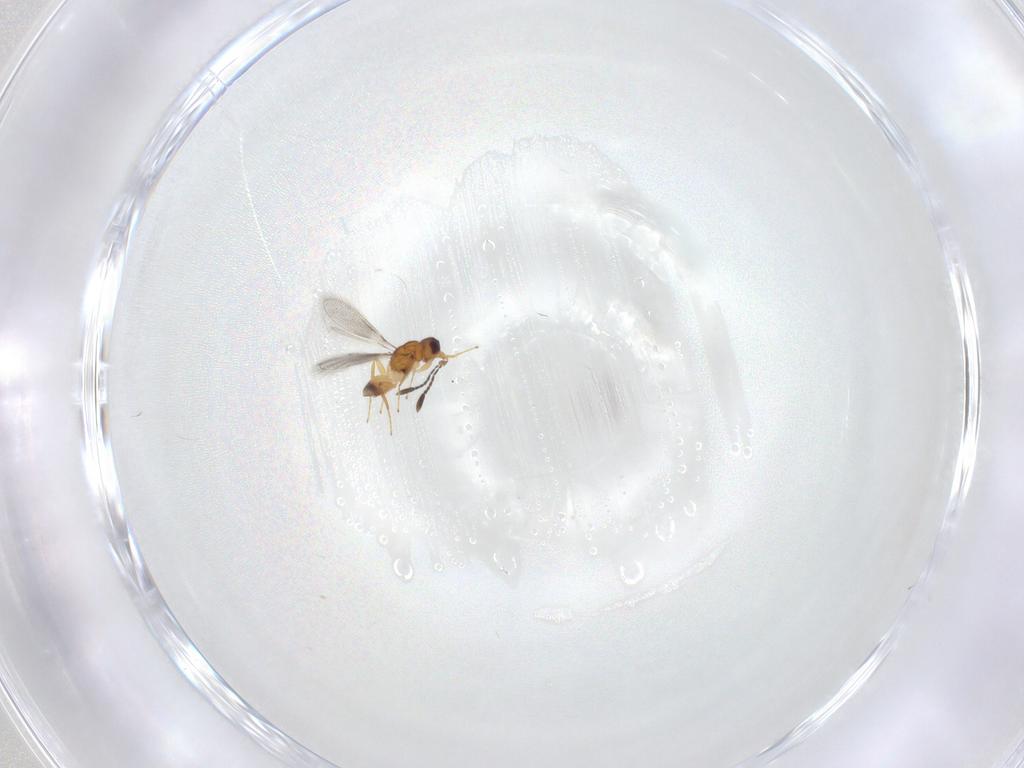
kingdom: Animalia
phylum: Arthropoda
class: Insecta
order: Hymenoptera
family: Mymaridae
